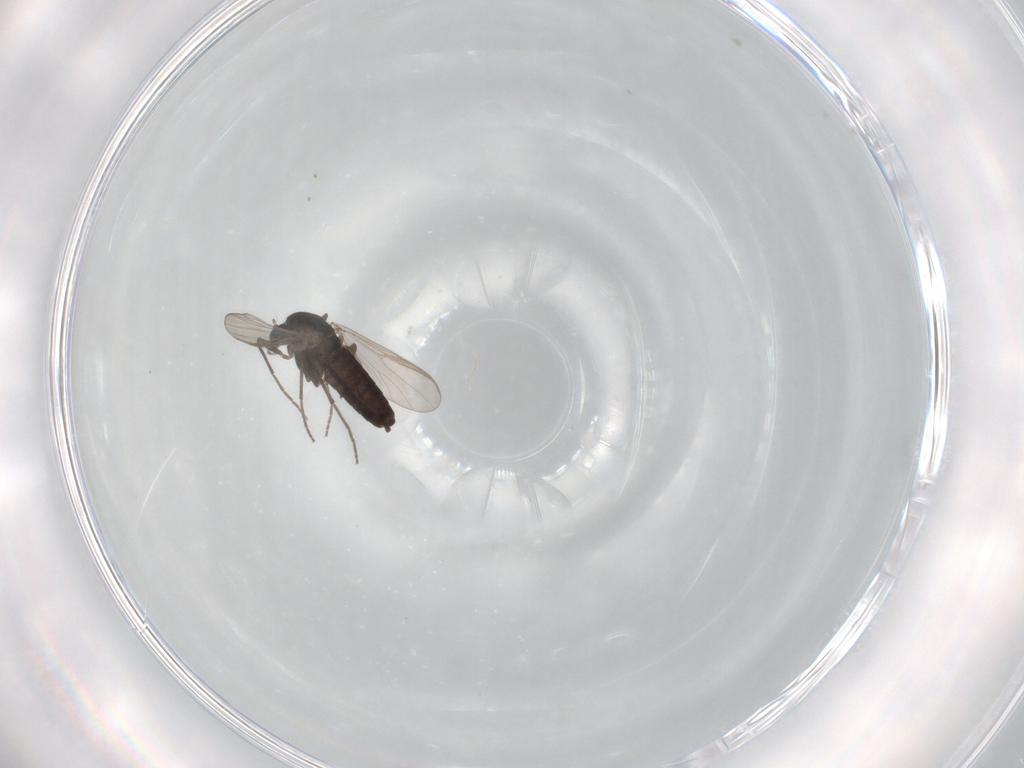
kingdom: Animalia
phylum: Arthropoda
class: Insecta
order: Diptera
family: Chironomidae
